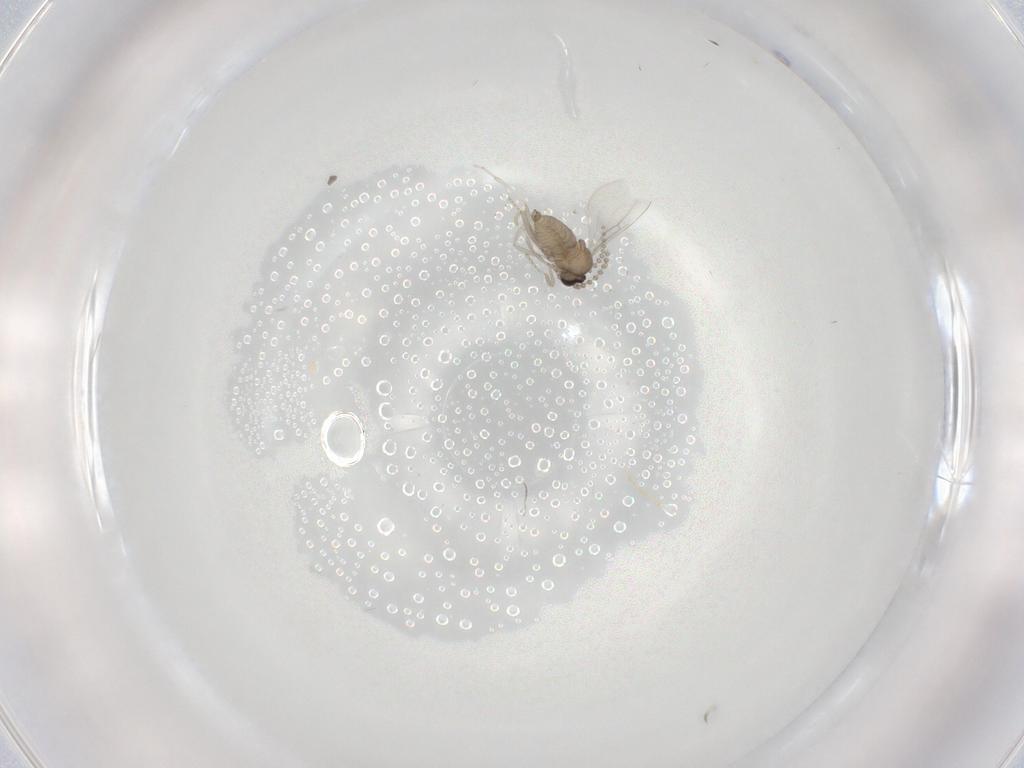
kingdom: Animalia
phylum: Arthropoda
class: Insecta
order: Diptera
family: Cecidomyiidae
